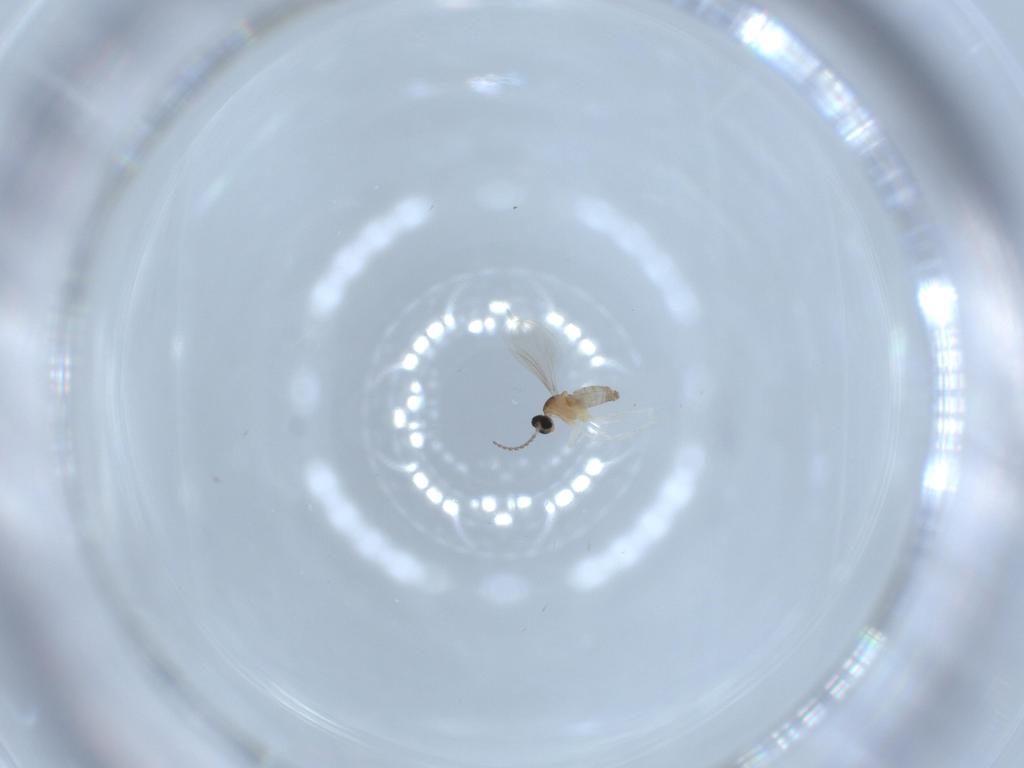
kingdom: Animalia
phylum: Arthropoda
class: Insecta
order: Diptera
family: Cecidomyiidae
